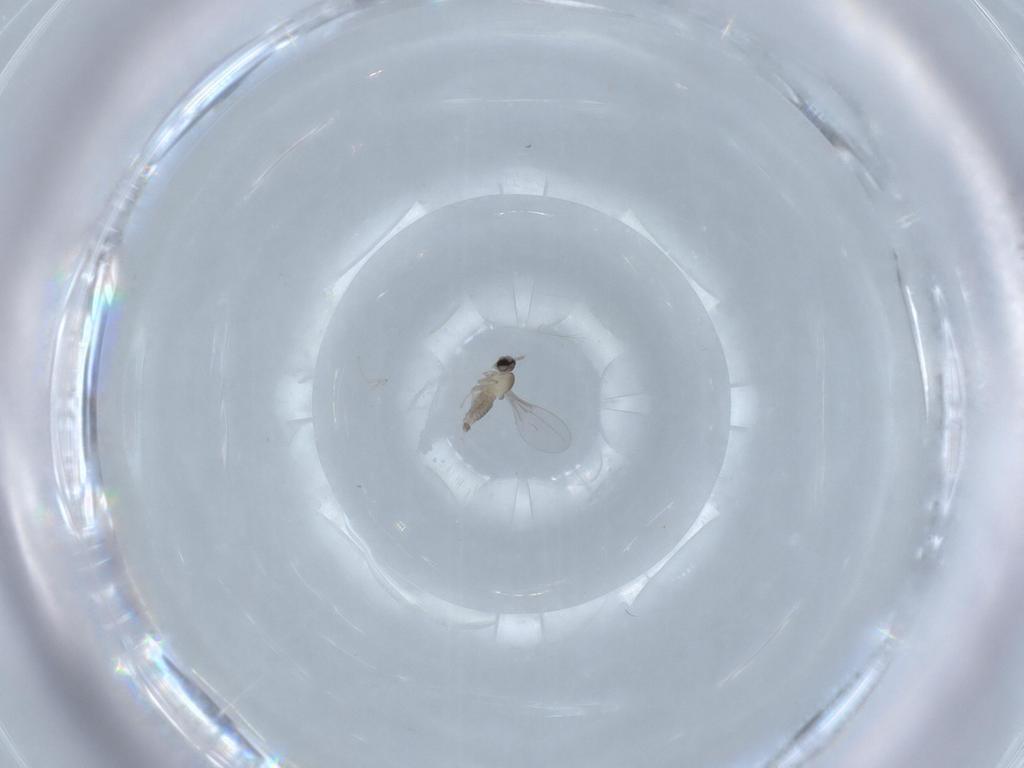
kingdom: Animalia
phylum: Arthropoda
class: Insecta
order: Diptera
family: Cecidomyiidae
